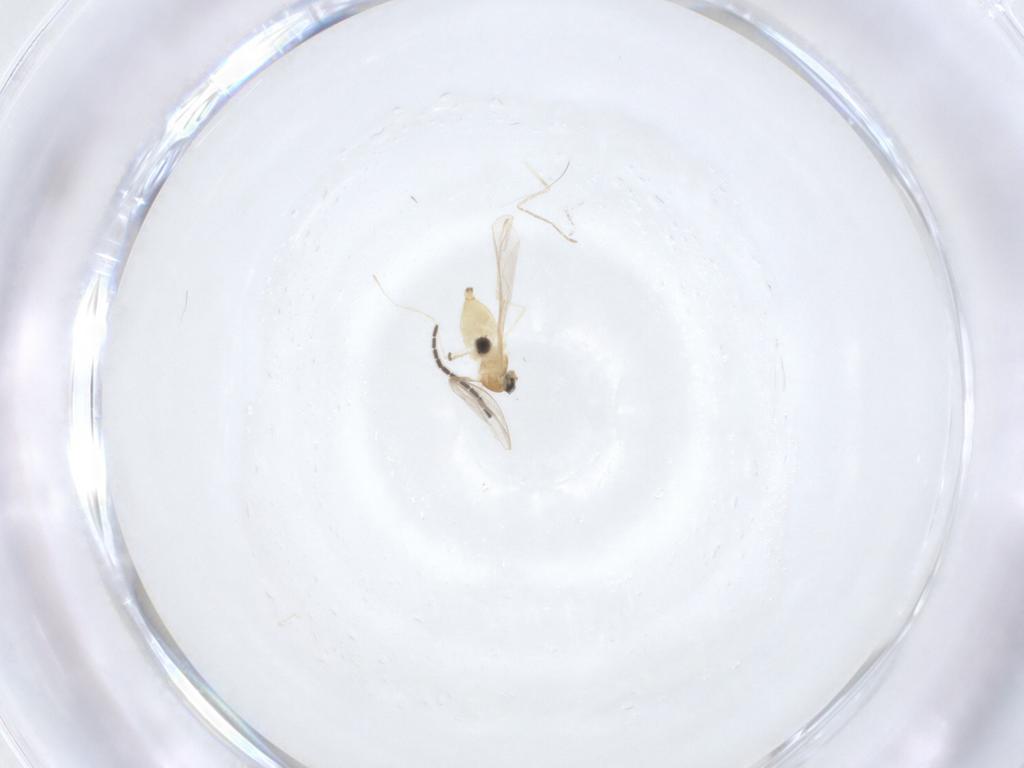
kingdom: Animalia
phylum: Arthropoda
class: Insecta
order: Diptera
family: Cecidomyiidae
